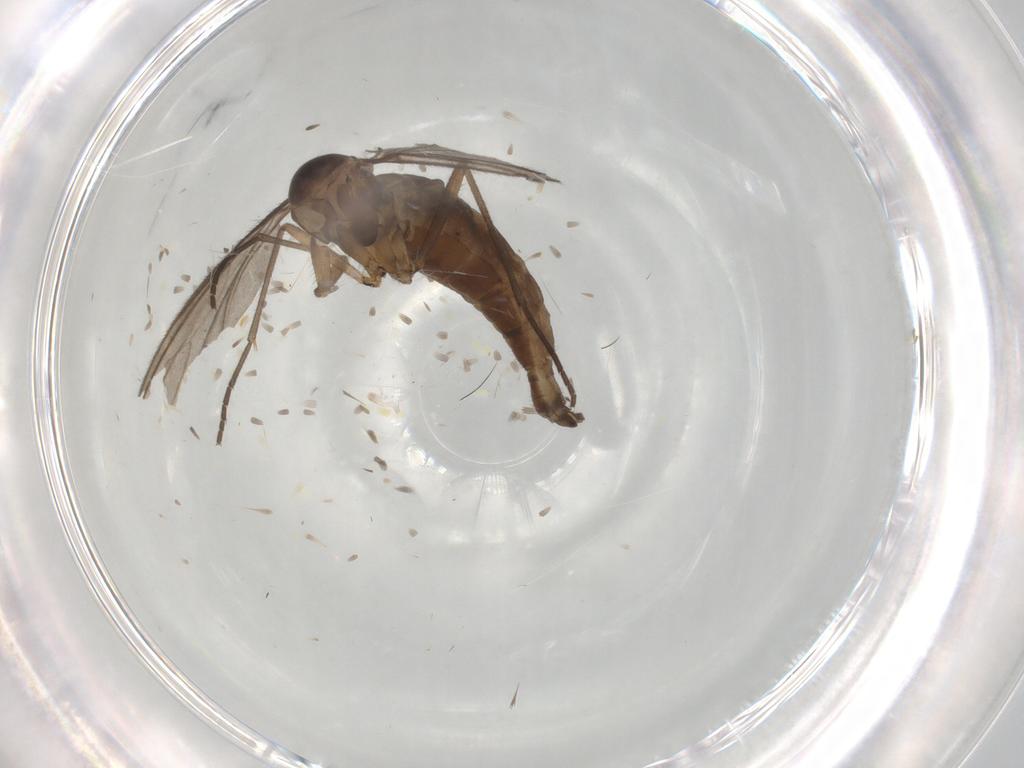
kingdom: Animalia
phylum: Arthropoda
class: Insecta
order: Diptera
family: Sciaridae
